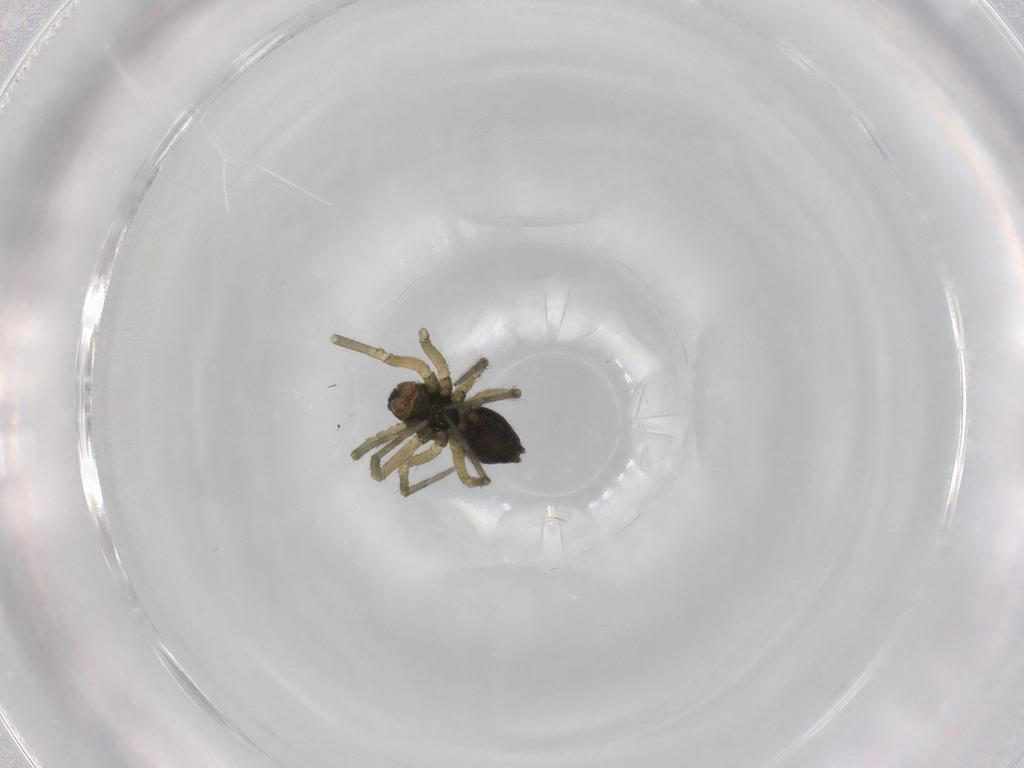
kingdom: Animalia
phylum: Arthropoda
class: Arachnida
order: Araneae
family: Linyphiidae
